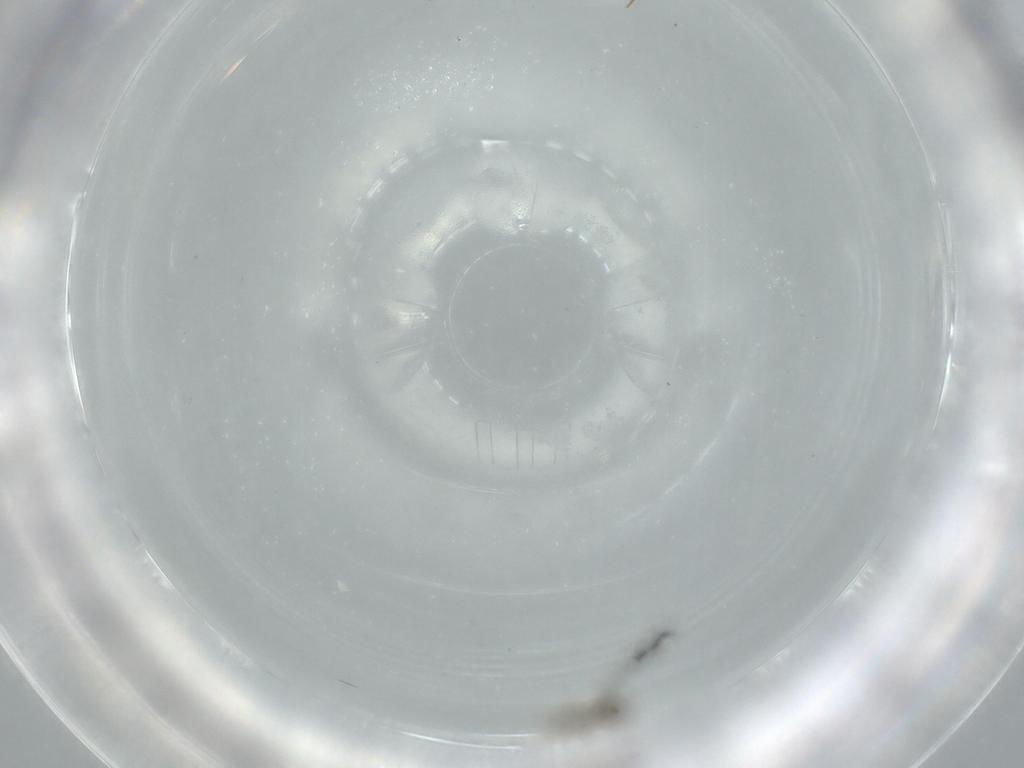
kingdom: Animalia
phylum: Arthropoda
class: Insecta
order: Diptera
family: Cecidomyiidae
